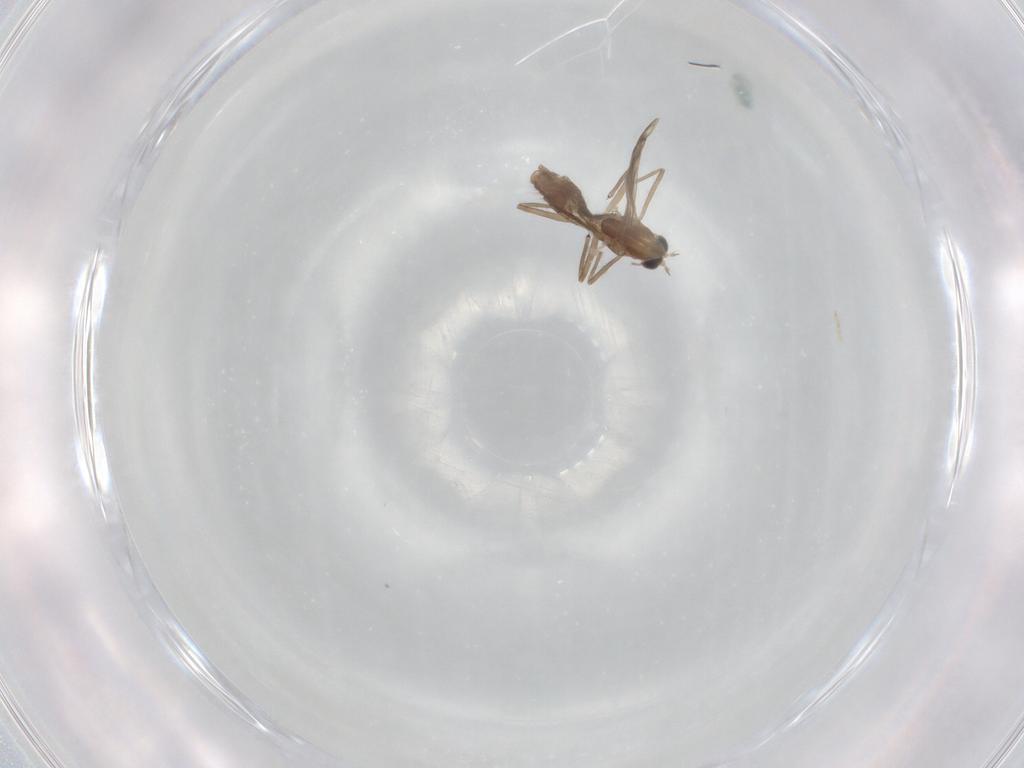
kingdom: Animalia
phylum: Arthropoda
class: Insecta
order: Diptera
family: Chironomidae
